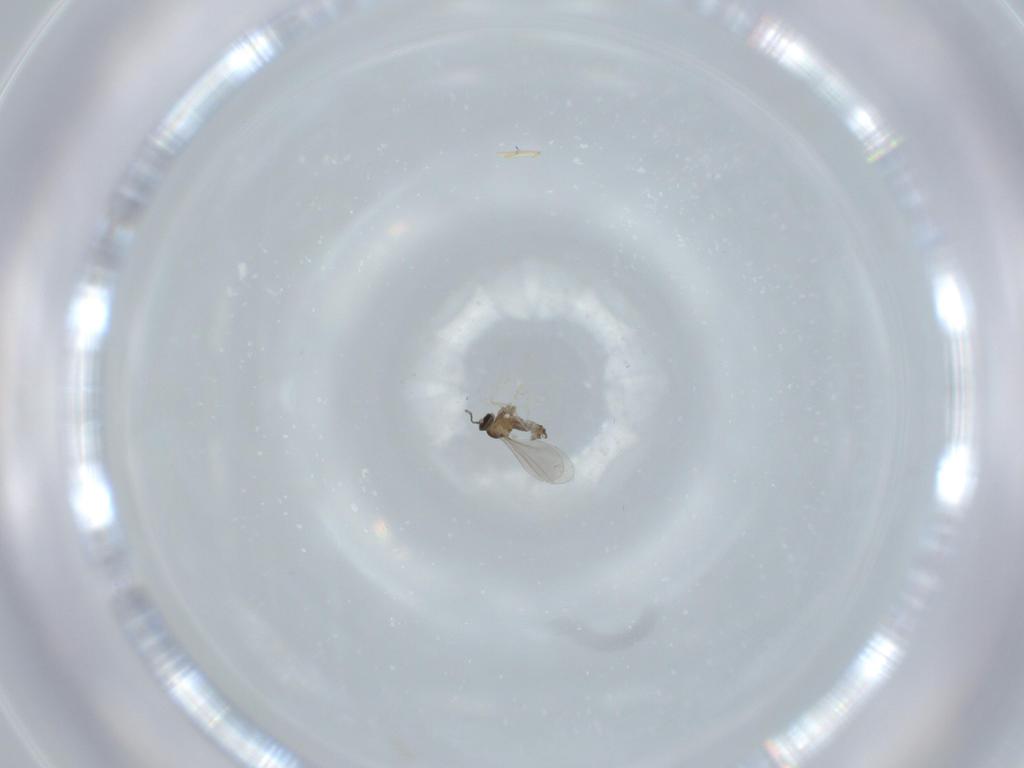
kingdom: Animalia
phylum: Arthropoda
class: Insecta
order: Diptera
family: Cecidomyiidae
